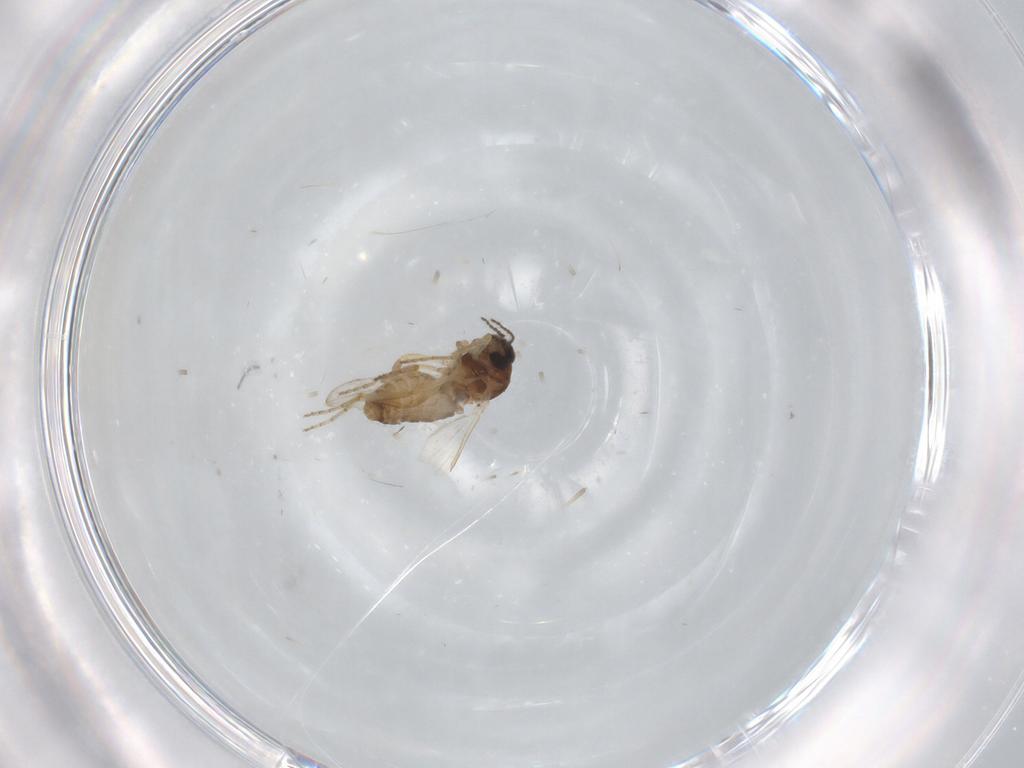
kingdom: Animalia
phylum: Arthropoda
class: Insecta
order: Diptera
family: Ceratopogonidae
